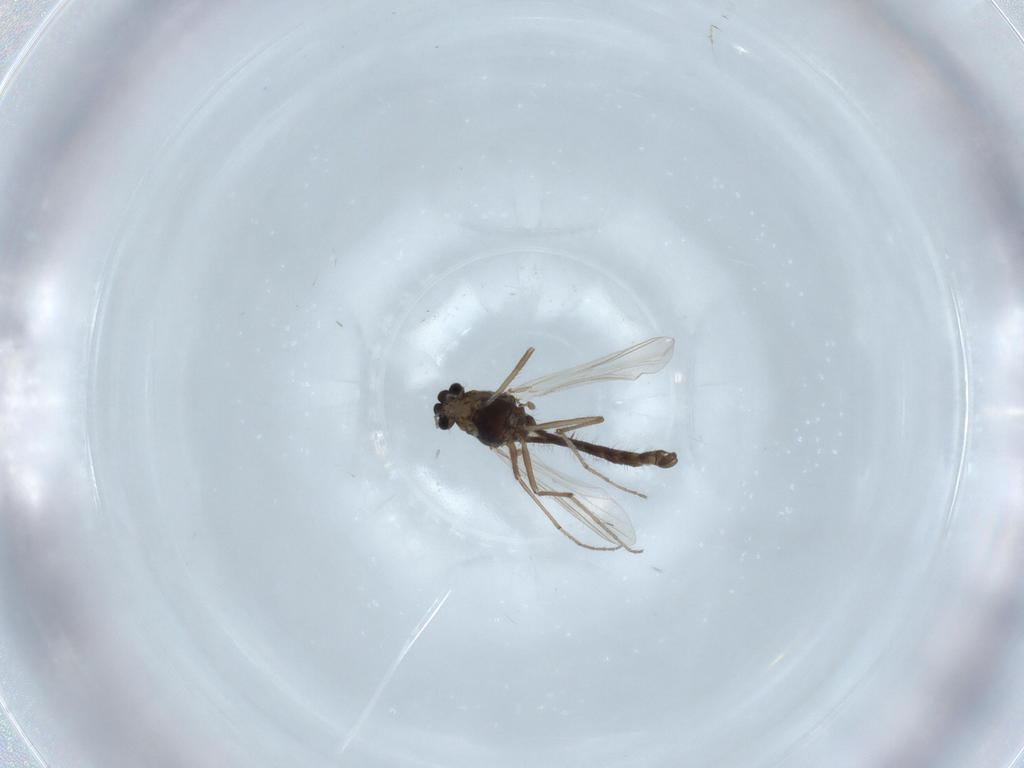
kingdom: Animalia
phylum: Arthropoda
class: Insecta
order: Diptera
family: Chironomidae
